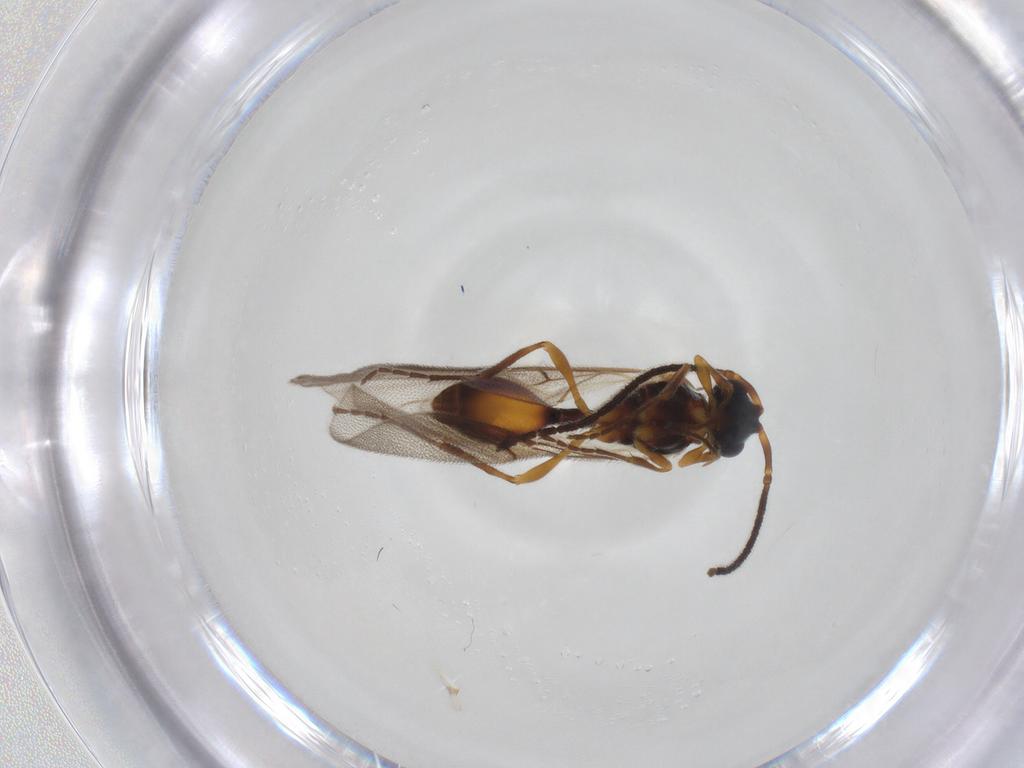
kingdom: Animalia
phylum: Arthropoda
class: Insecta
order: Hymenoptera
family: Diapriidae
